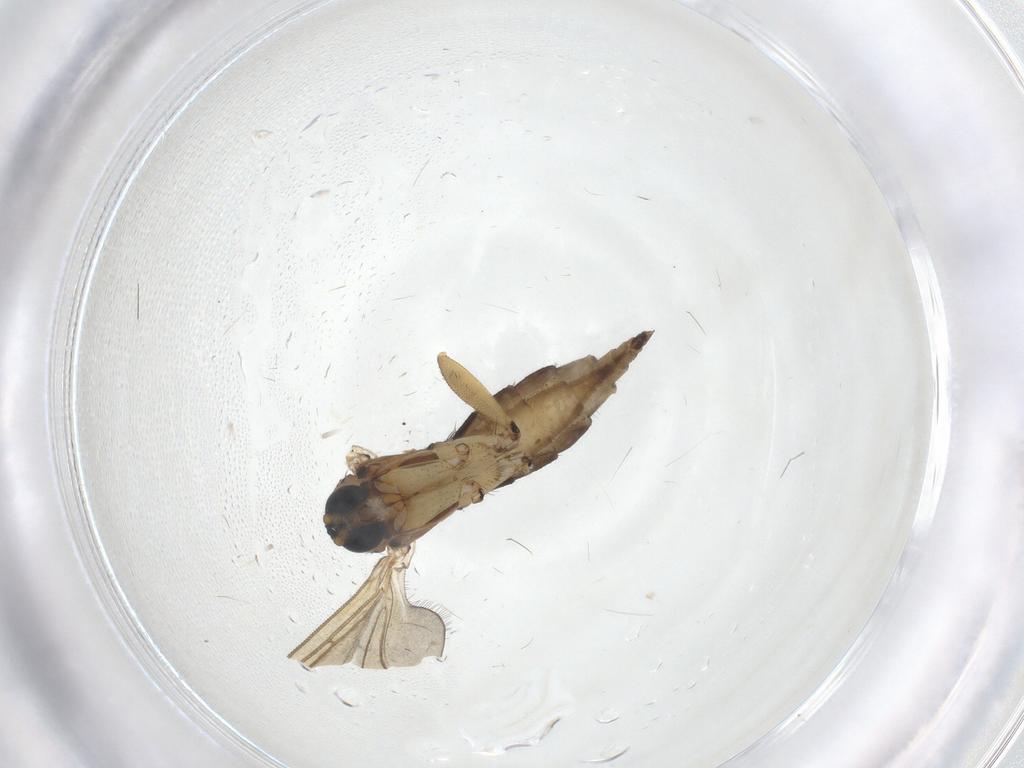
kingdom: Animalia
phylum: Arthropoda
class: Insecta
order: Diptera
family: Sciaridae
